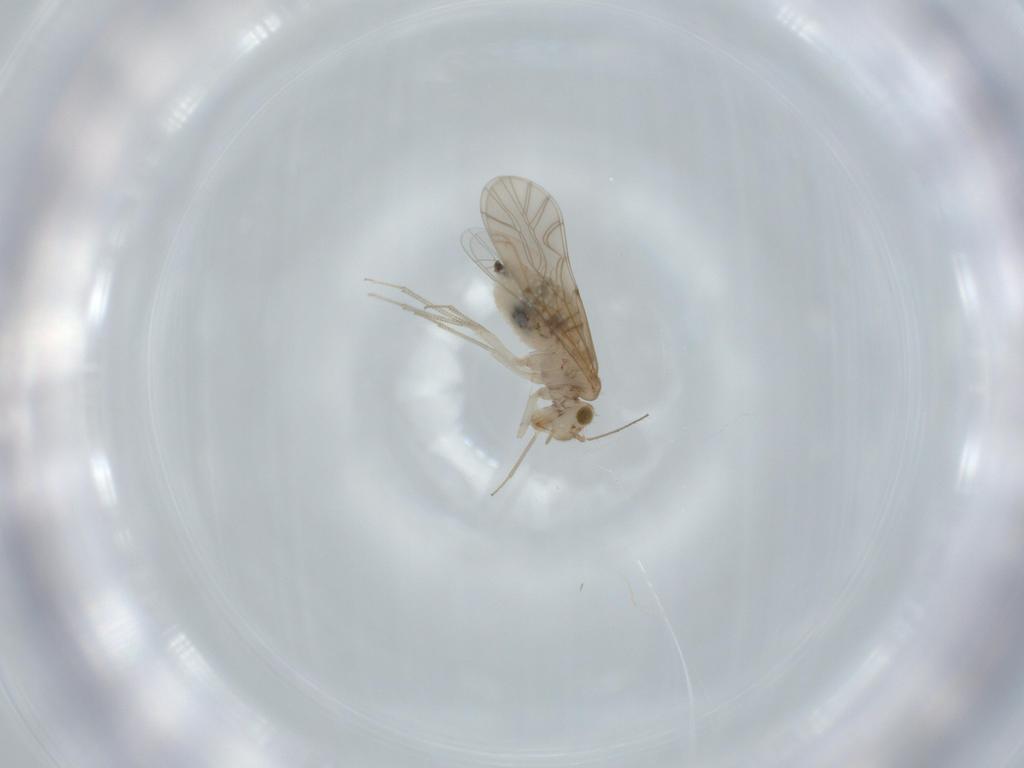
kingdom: Animalia
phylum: Arthropoda
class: Insecta
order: Psocodea
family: Lachesillidae
